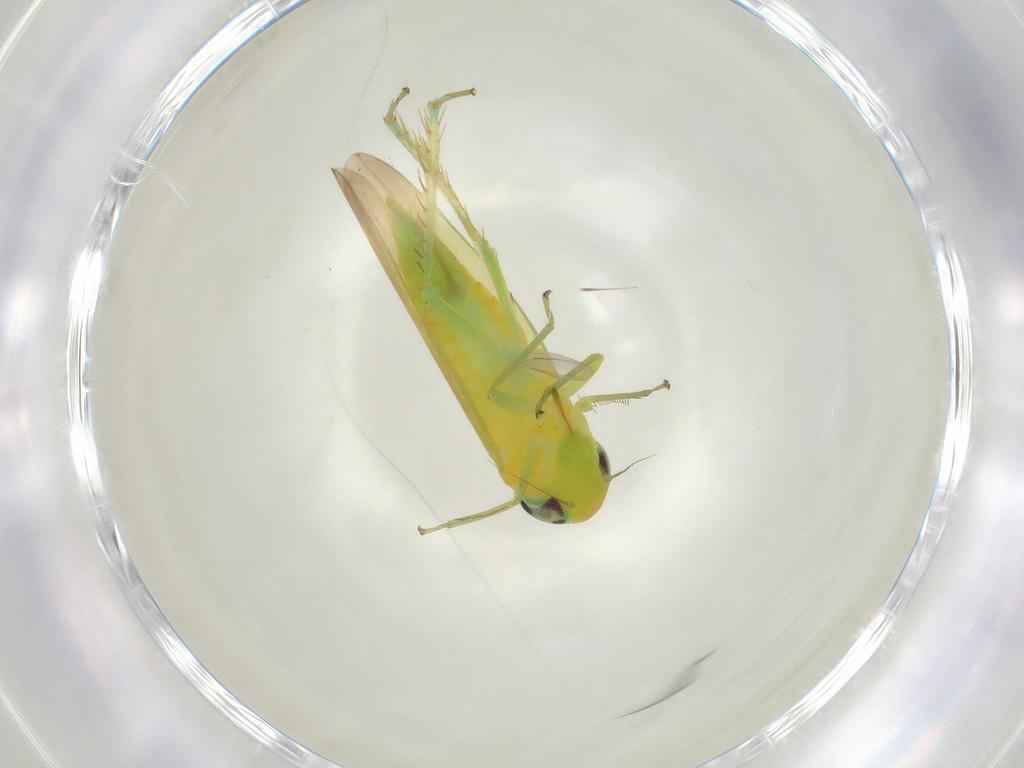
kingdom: Animalia
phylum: Arthropoda
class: Insecta
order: Hemiptera
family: Cicadellidae
